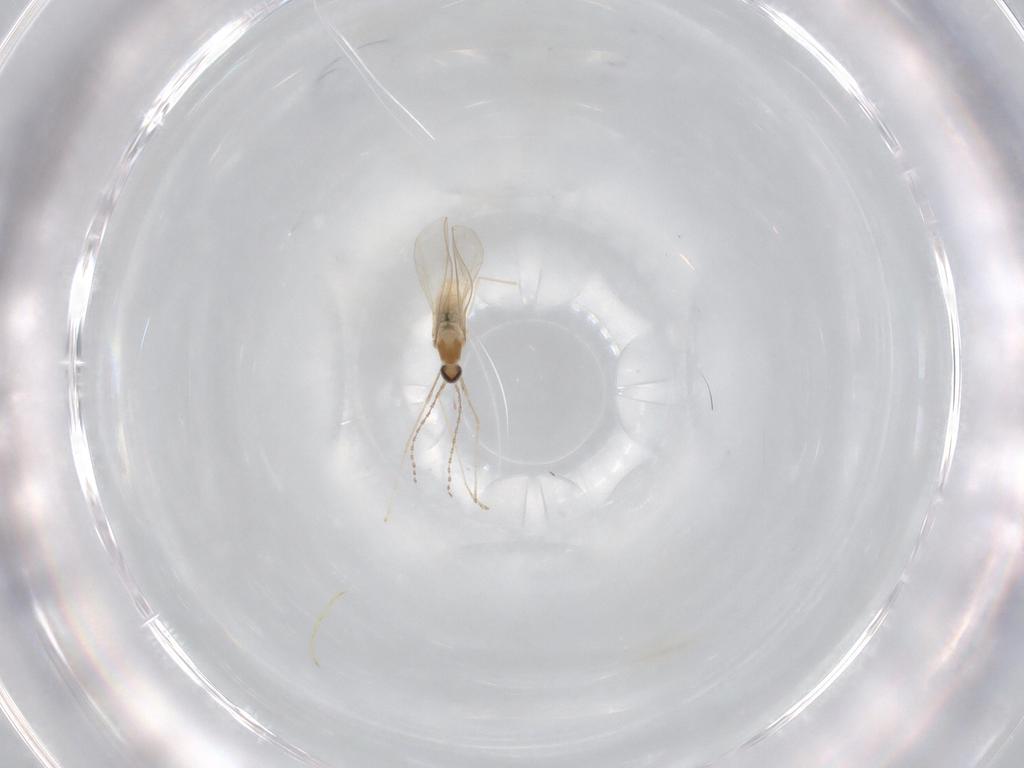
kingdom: Animalia
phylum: Arthropoda
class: Insecta
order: Diptera
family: Cecidomyiidae
